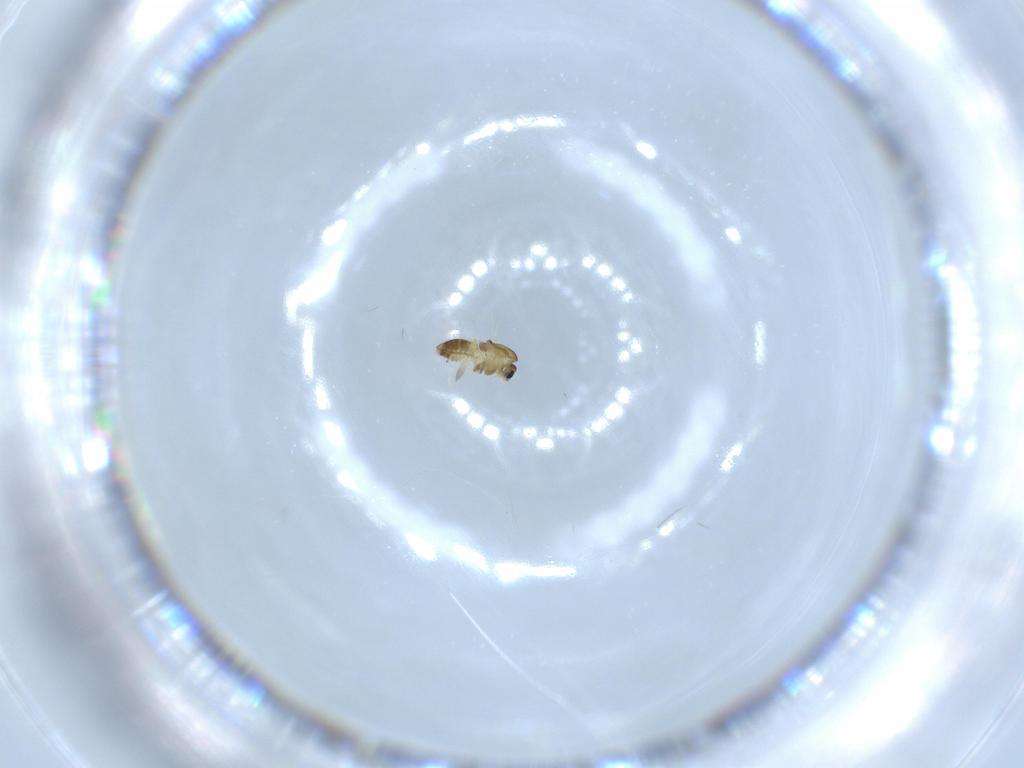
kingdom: Animalia
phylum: Arthropoda
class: Insecta
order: Diptera
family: Chironomidae
